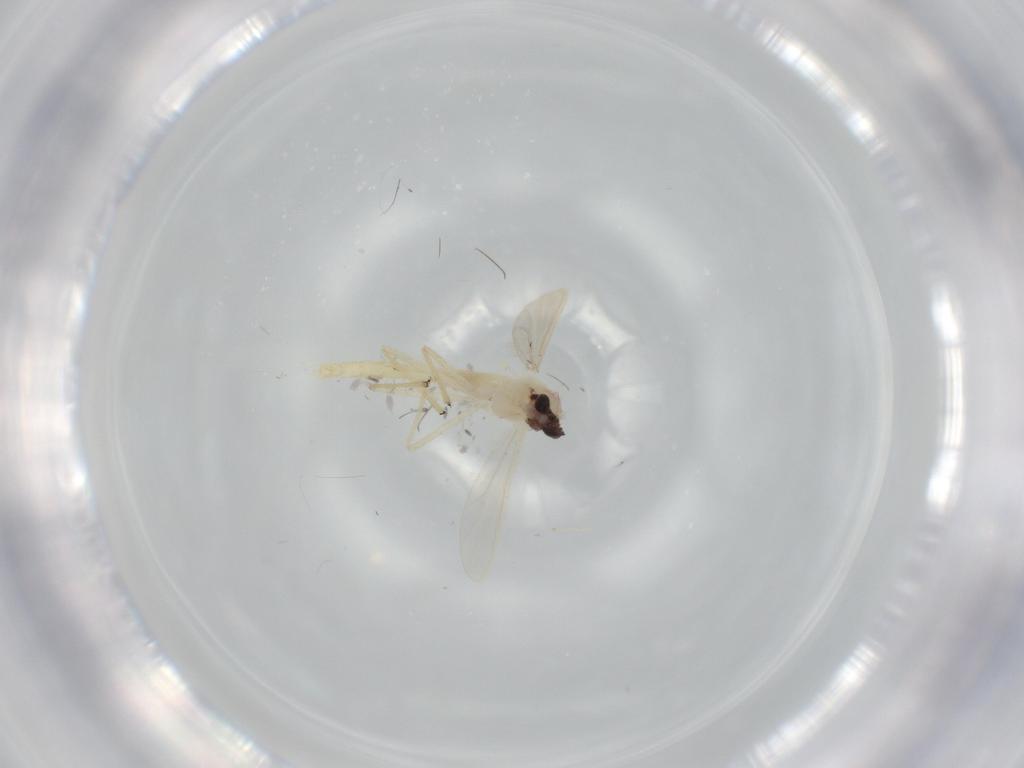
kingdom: Animalia
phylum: Arthropoda
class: Insecta
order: Diptera
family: Chironomidae
